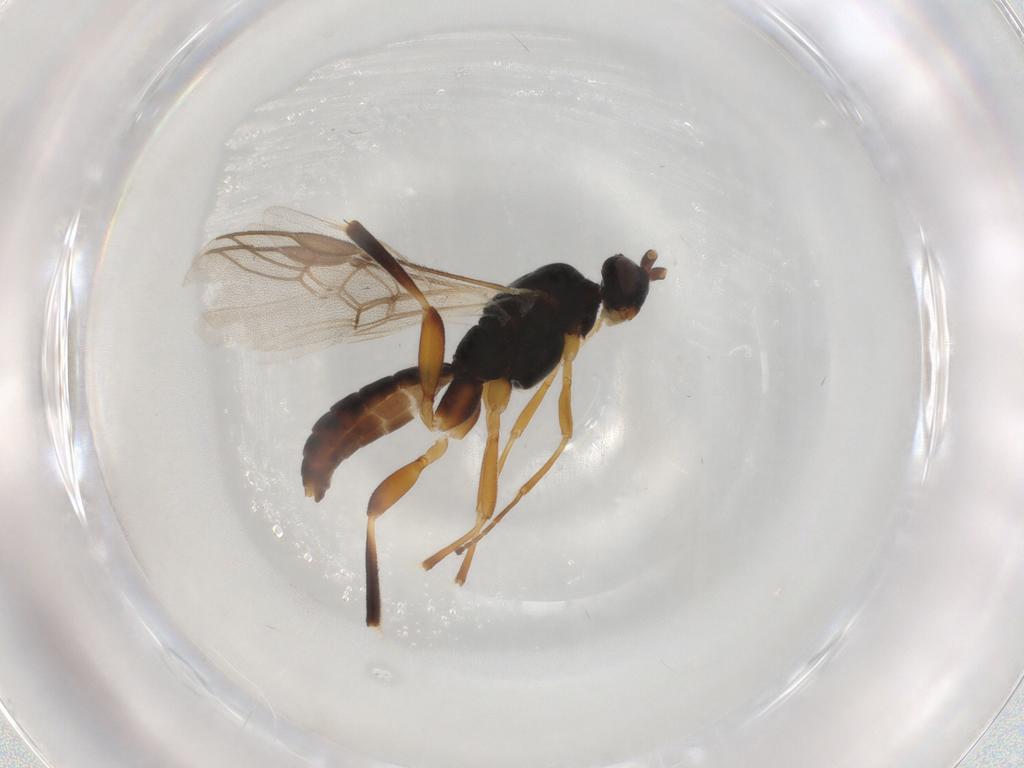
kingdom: Animalia
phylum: Arthropoda
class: Insecta
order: Hymenoptera
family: Braconidae
